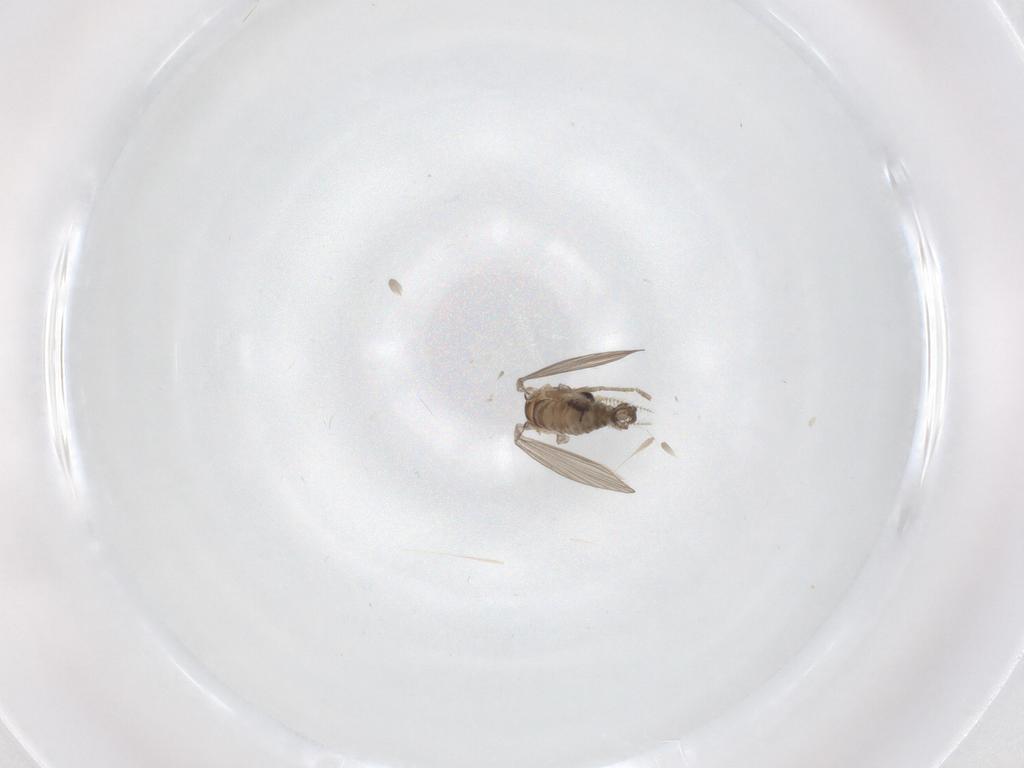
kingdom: Animalia
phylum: Arthropoda
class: Insecta
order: Diptera
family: Psychodidae
